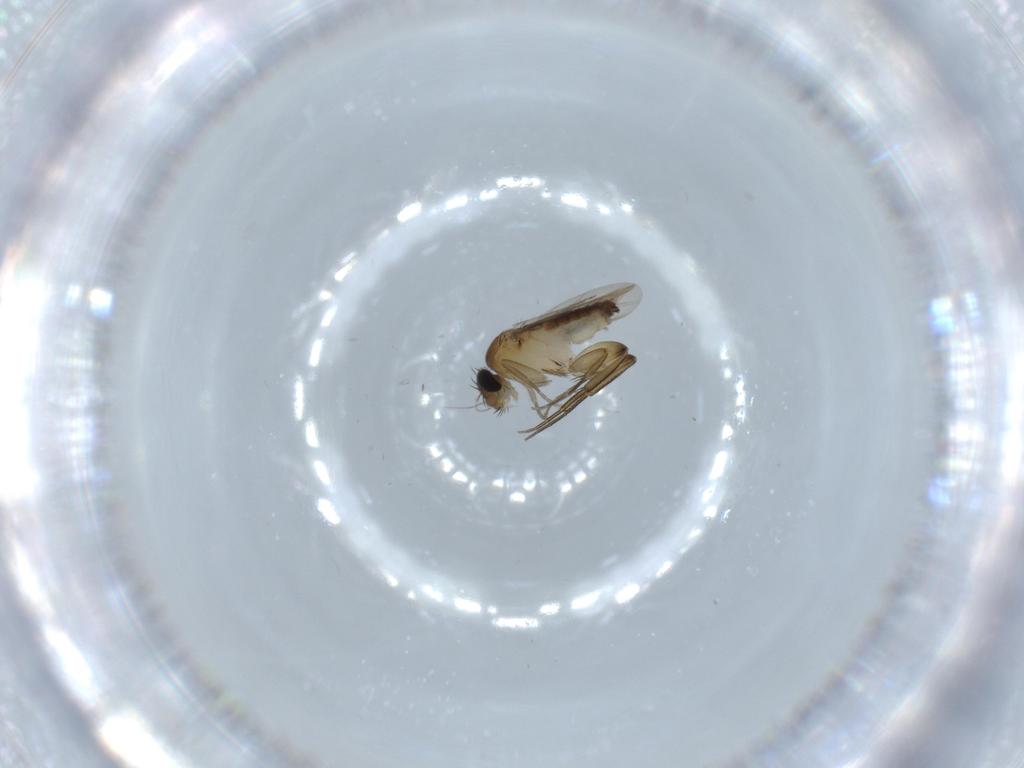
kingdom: Animalia
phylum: Arthropoda
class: Insecta
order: Diptera
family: Phoridae
